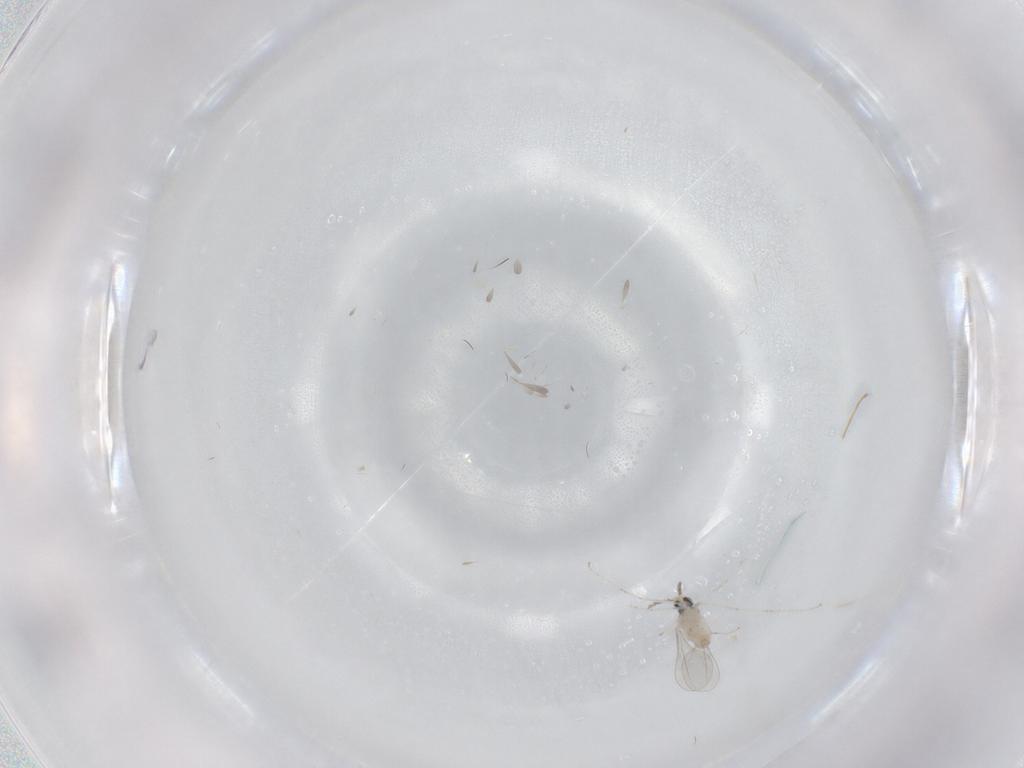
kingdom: Animalia
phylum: Arthropoda
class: Insecta
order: Diptera
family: Cecidomyiidae
